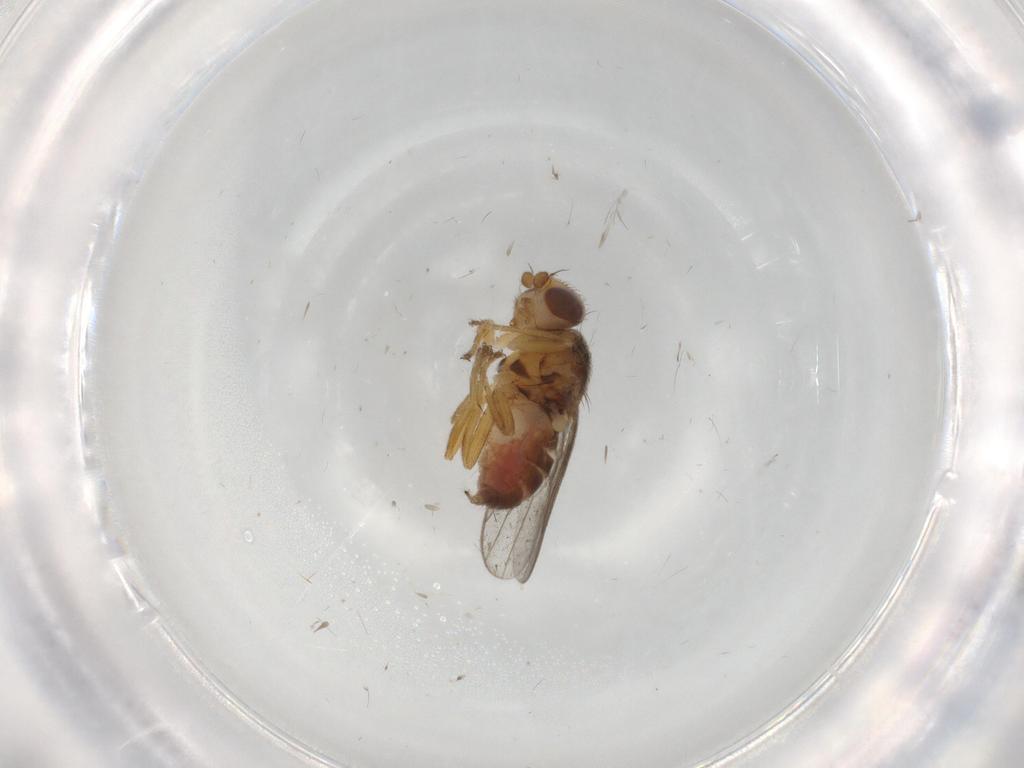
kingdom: Animalia
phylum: Arthropoda
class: Insecta
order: Diptera
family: Chloropidae
